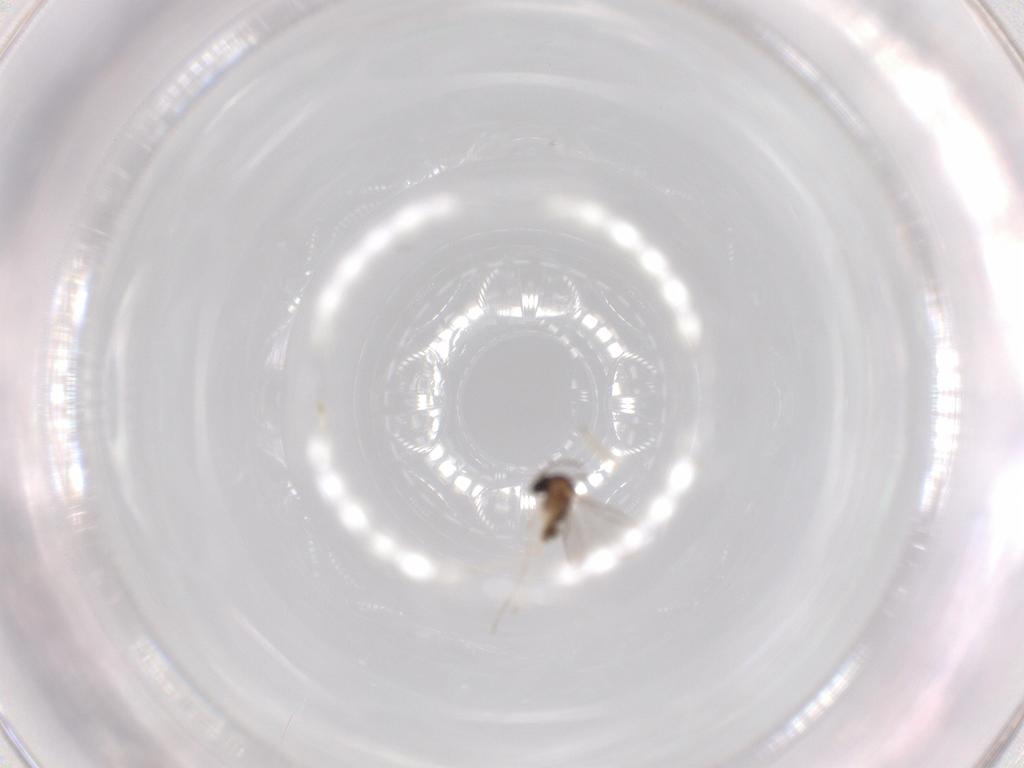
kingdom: Animalia
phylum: Arthropoda
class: Insecta
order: Diptera
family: Cecidomyiidae
